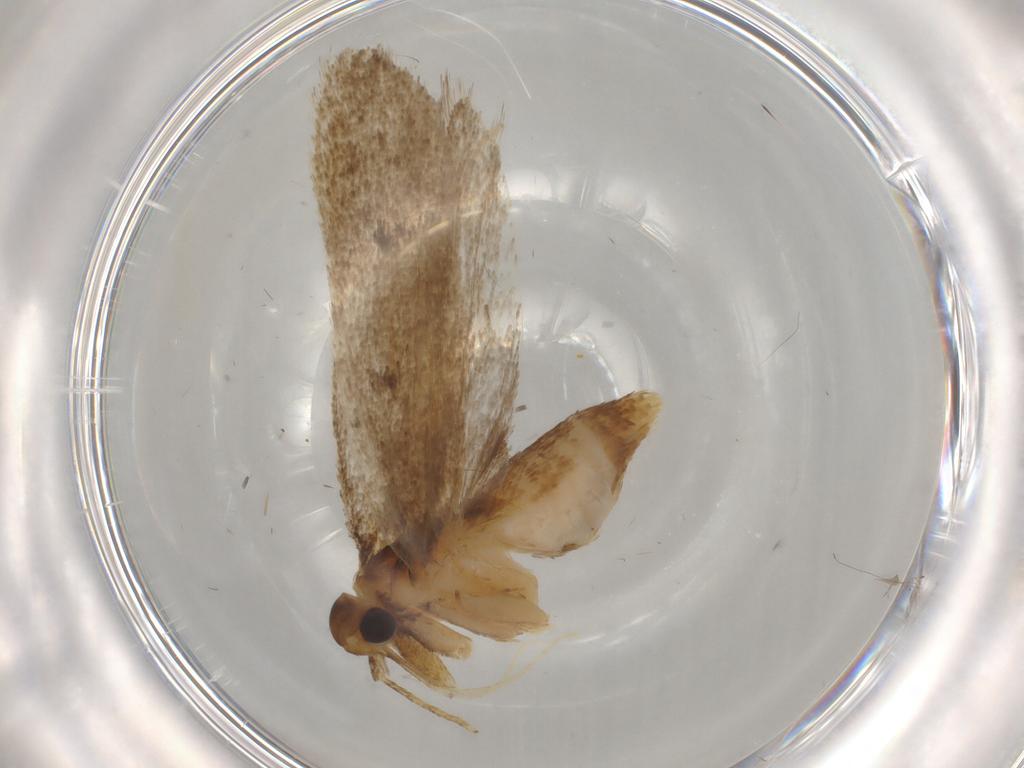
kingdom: Animalia
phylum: Arthropoda
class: Insecta
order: Lepidoptera
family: Lecithoceridae
